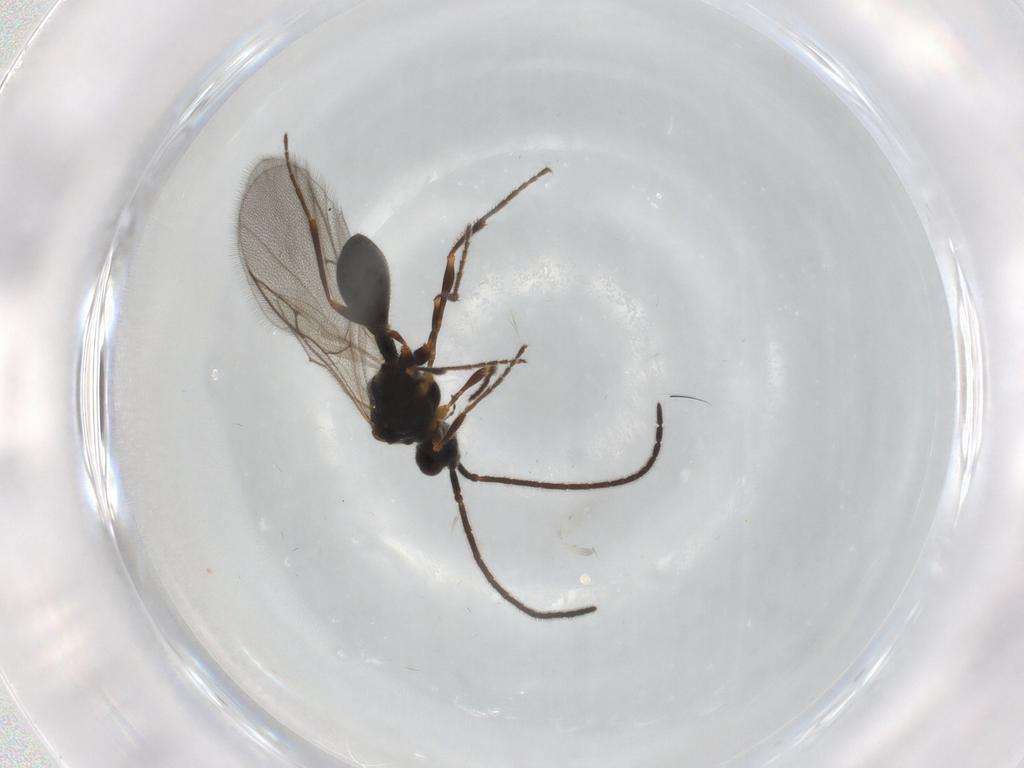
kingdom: Animalia
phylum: Arthropoda
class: Insecta
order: Hymenoptera
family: Diapriidae
